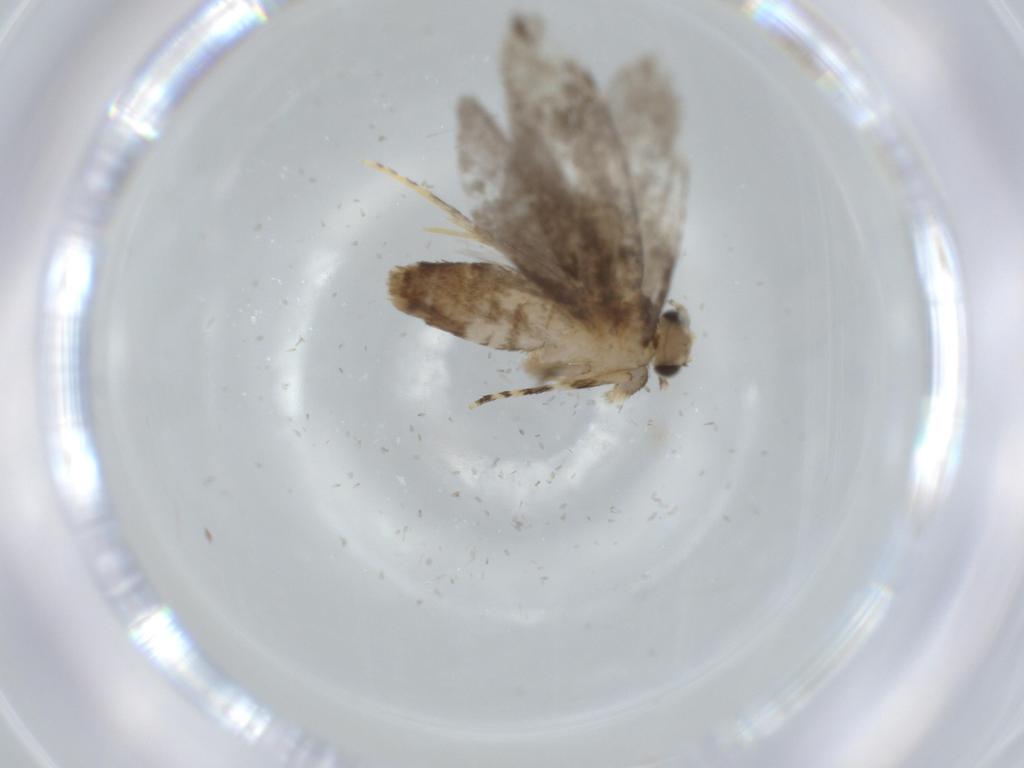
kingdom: Animalia
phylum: Arthropoda
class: Insecta
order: Lepidoptera
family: Tineidae
